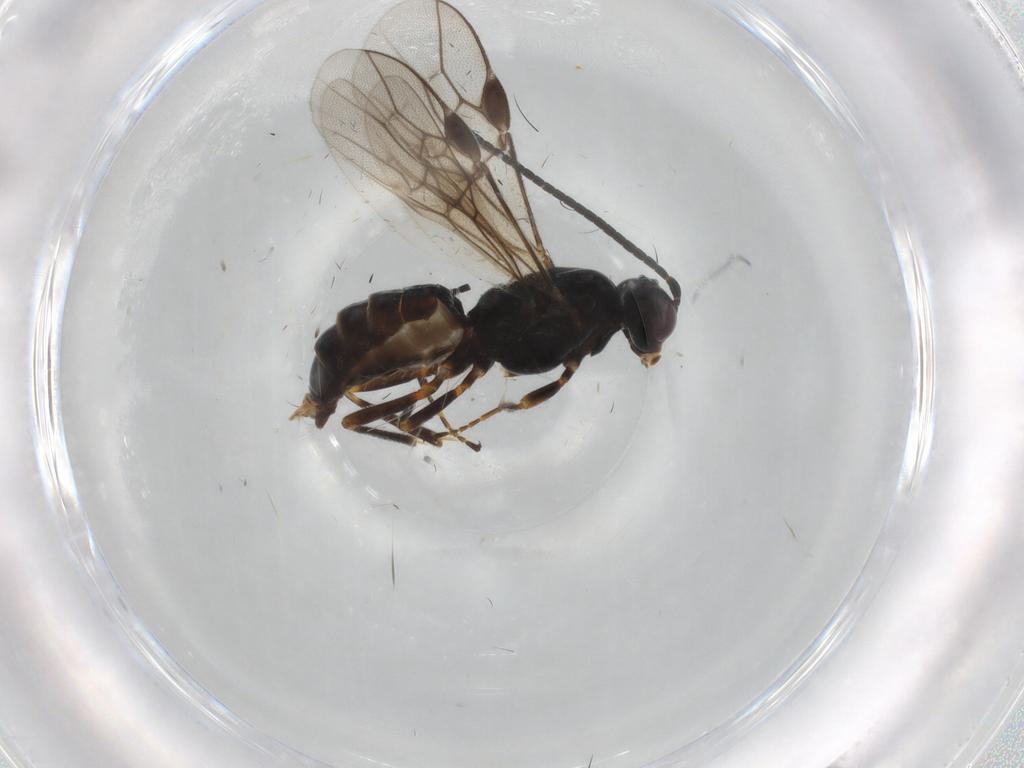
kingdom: Animalia
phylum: Arthropoda
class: Insecta
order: Hymenoptera
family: Braconidae
